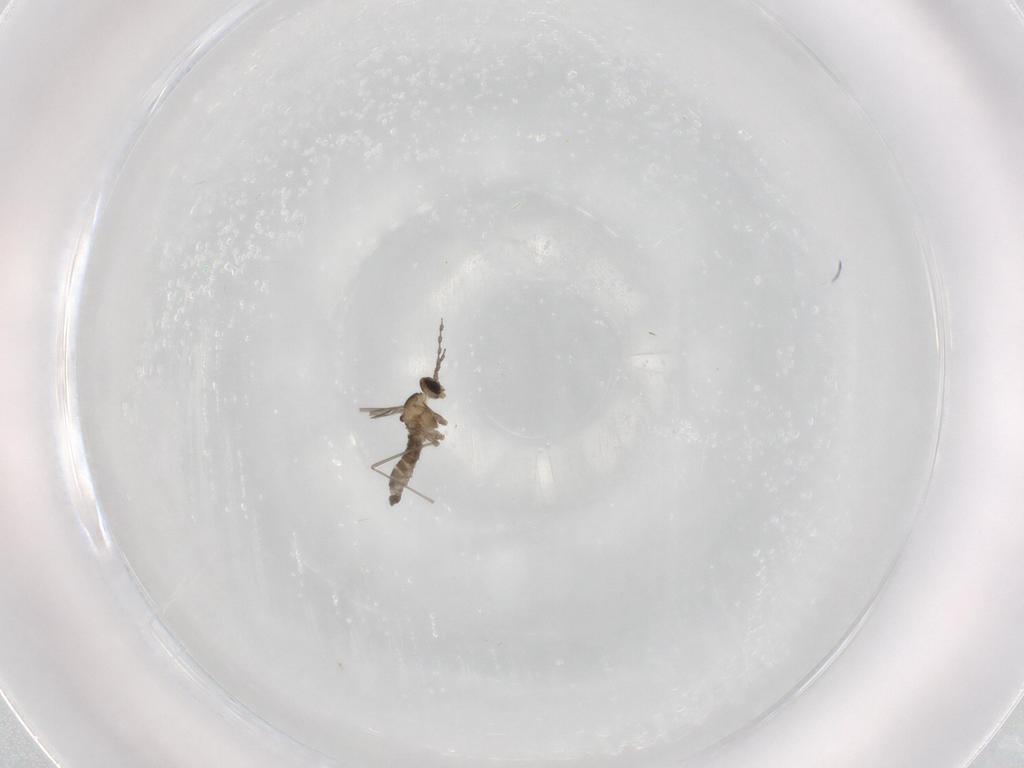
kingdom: Animalia
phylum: Arthropoda
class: Insecta
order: Diptera
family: Cecidomyiidae
